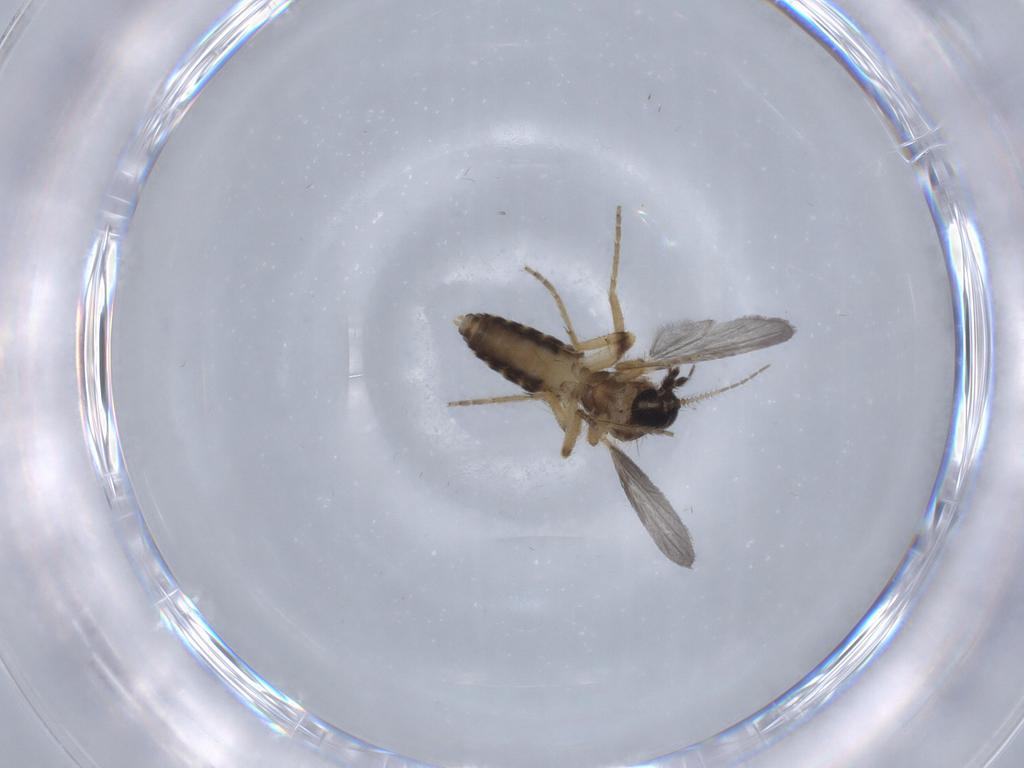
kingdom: Animalia
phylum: Arthropoda
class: Insecta
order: Diptera
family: Ceratopogonidae
